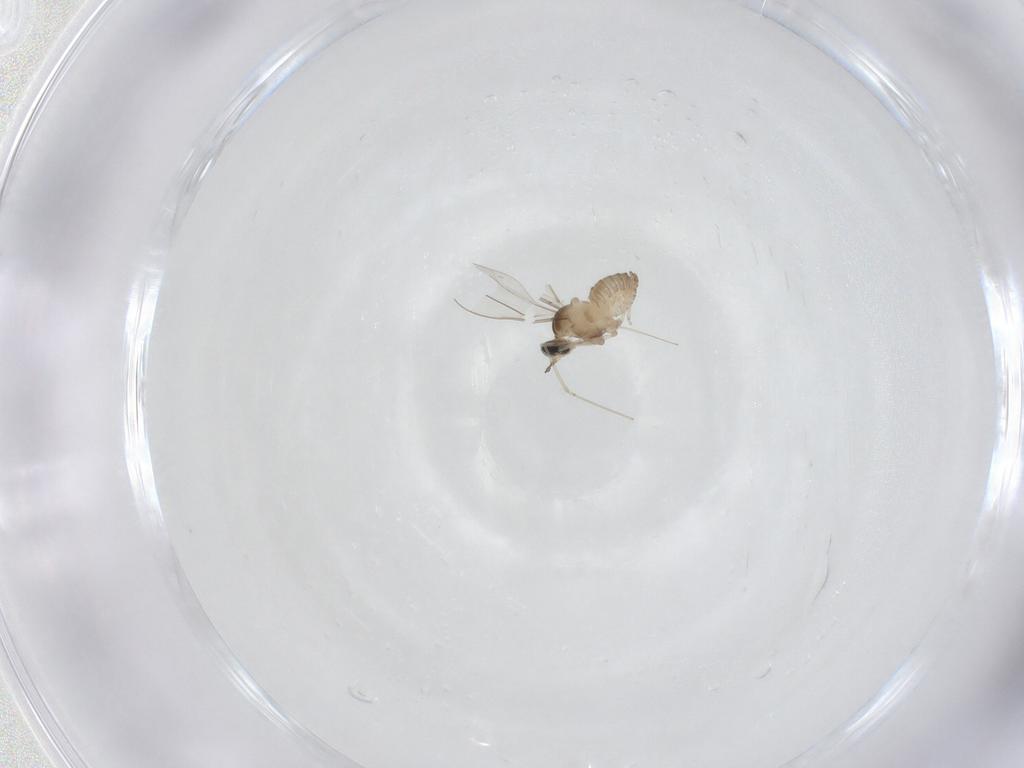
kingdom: Animalia
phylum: Arthropoda
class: Insecta
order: Diptera
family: Cecidomyiidae
